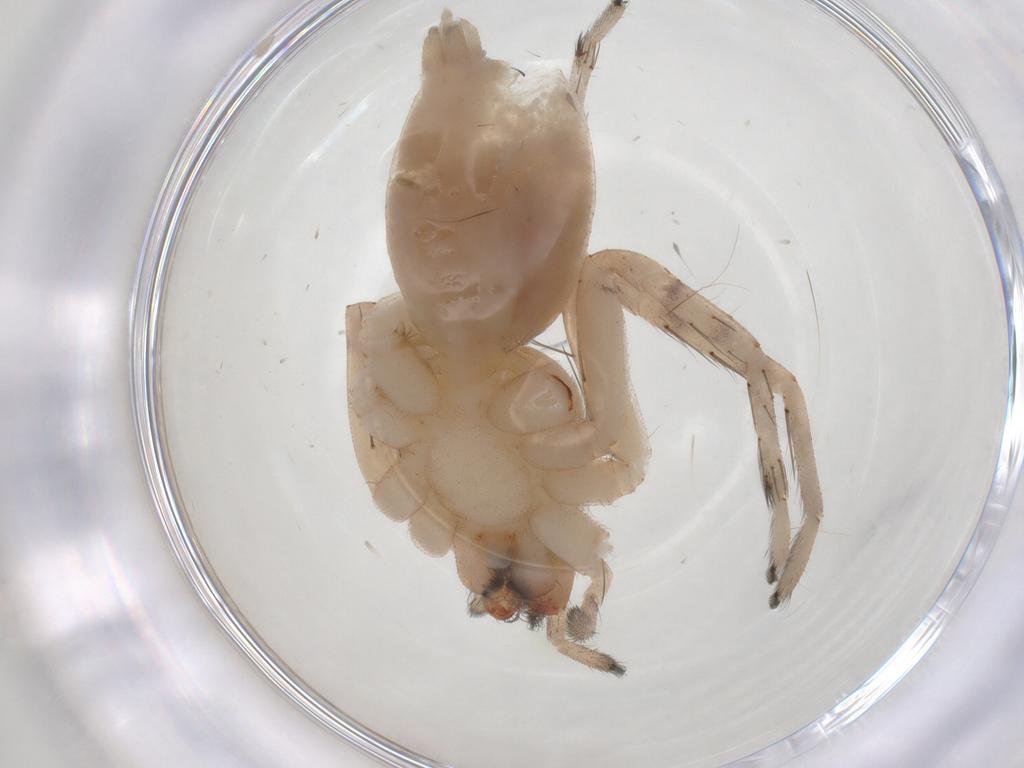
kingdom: Animalia
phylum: Arthropoda
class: Arachnida
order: Araneae
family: Anyphaenidae
